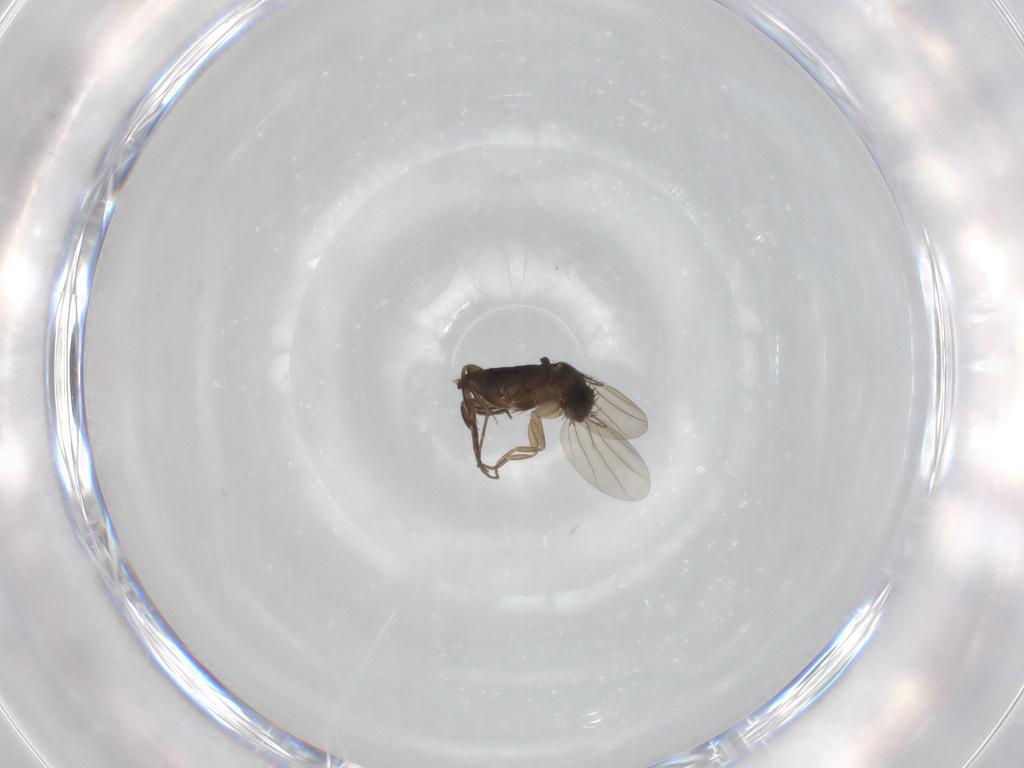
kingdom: Animalia
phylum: Arthropoda
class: Insecta
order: Diptera
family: Phoridae
